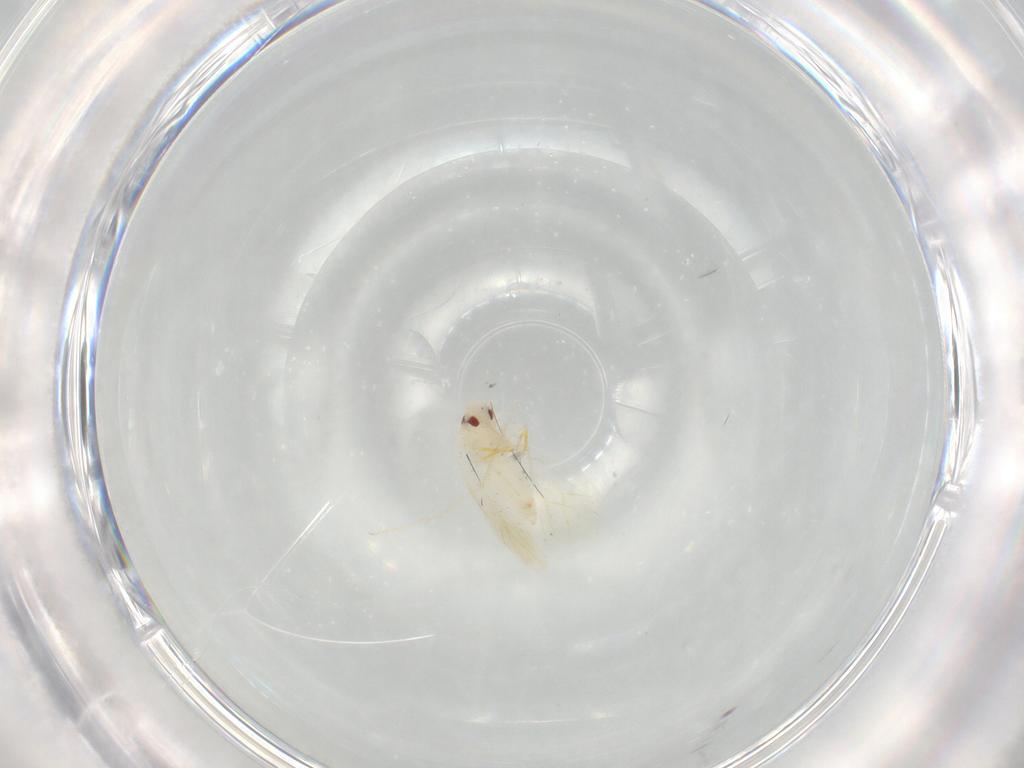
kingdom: Animalia
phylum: Arthropoda
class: Insecta
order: Hemiptera
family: Aleyrodidae
